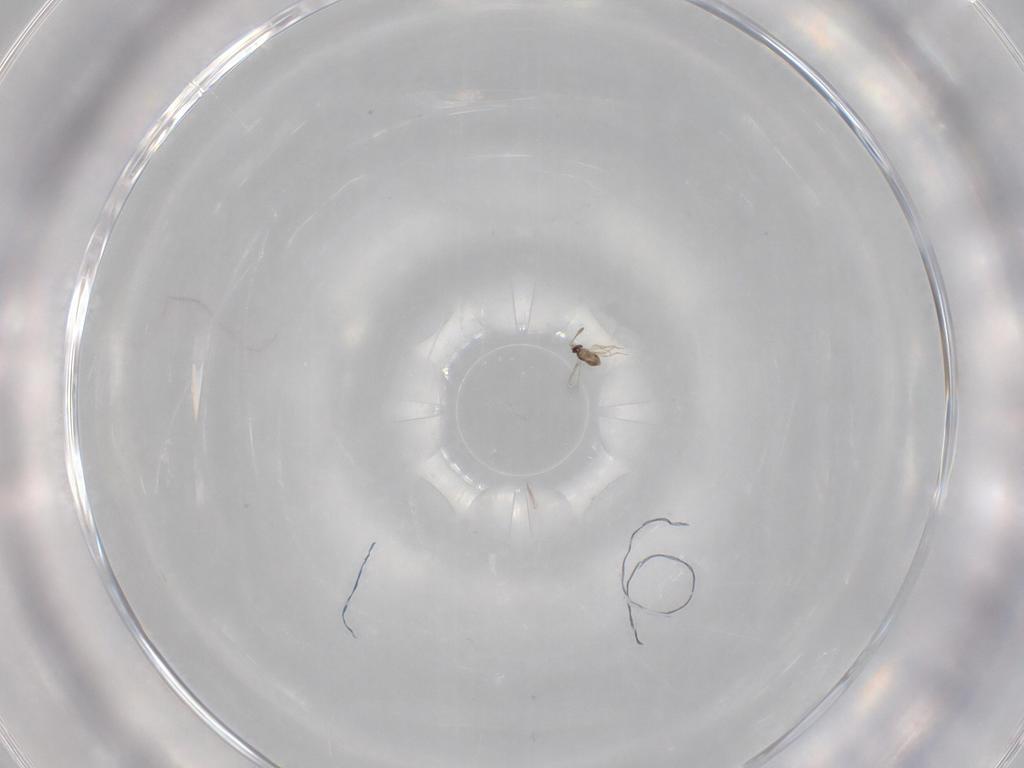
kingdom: Animalia
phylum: Arthropoda
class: Insecta
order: Hymenoptera
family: Mymaridae
